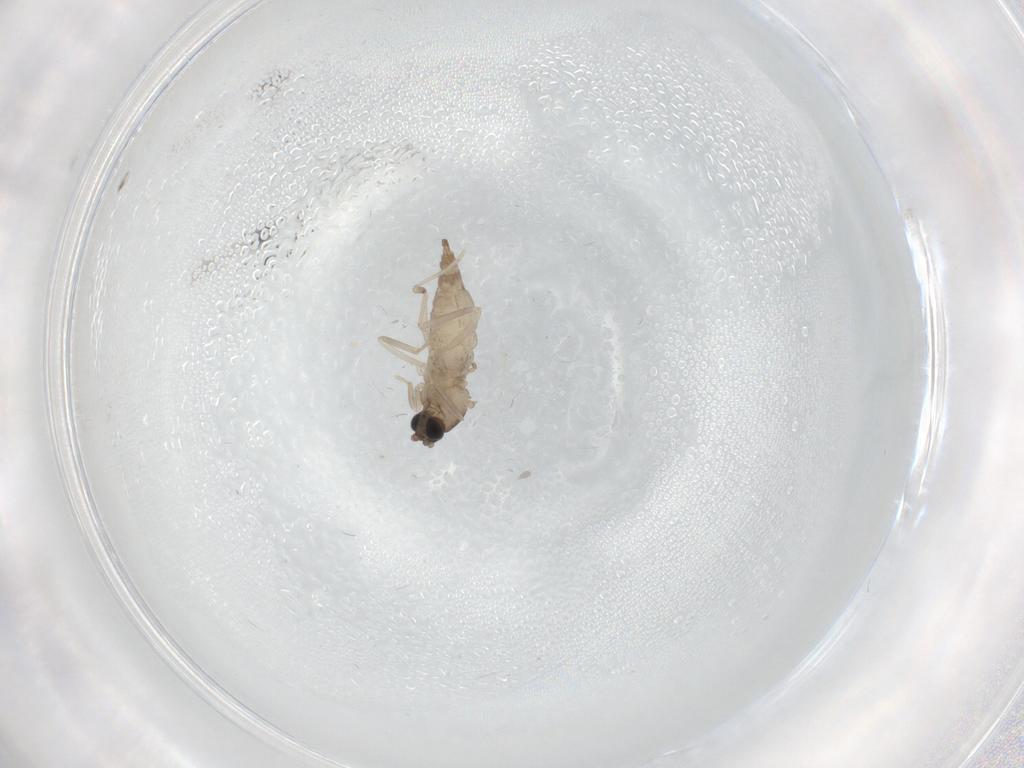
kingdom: Animalia
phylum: Arthropoda
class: Insecta
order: Diptera
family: Cecidomyiidae
